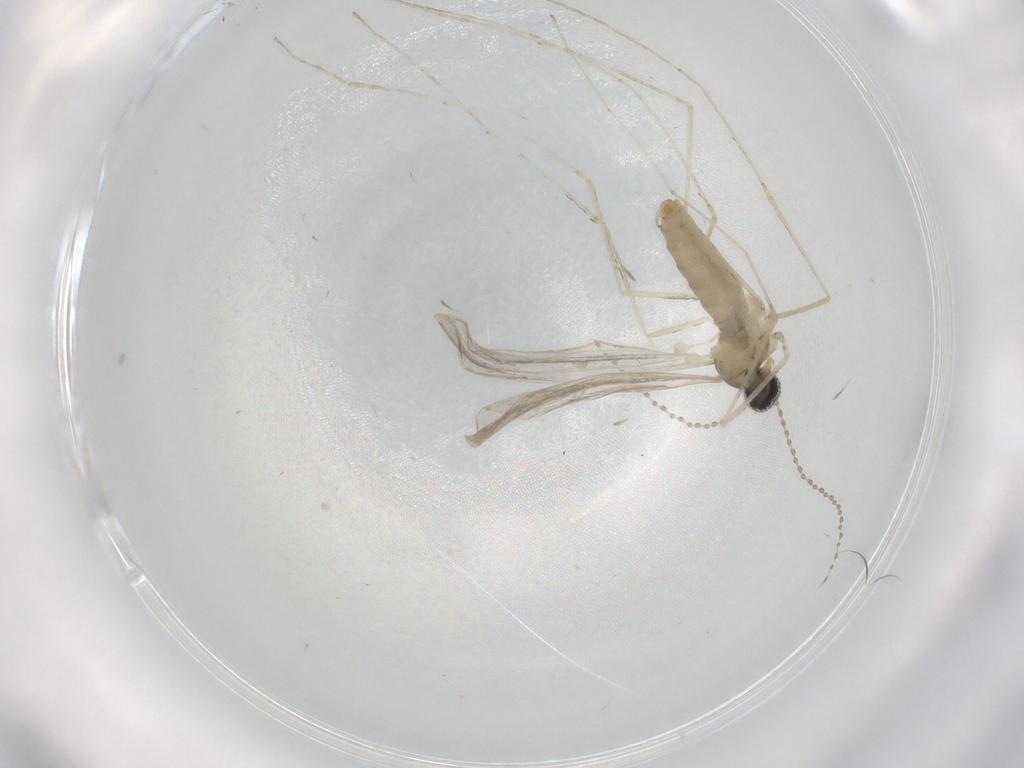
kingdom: Animalia
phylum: Arthropoda
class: Insecta
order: Diptera
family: Cecidomyiidae
